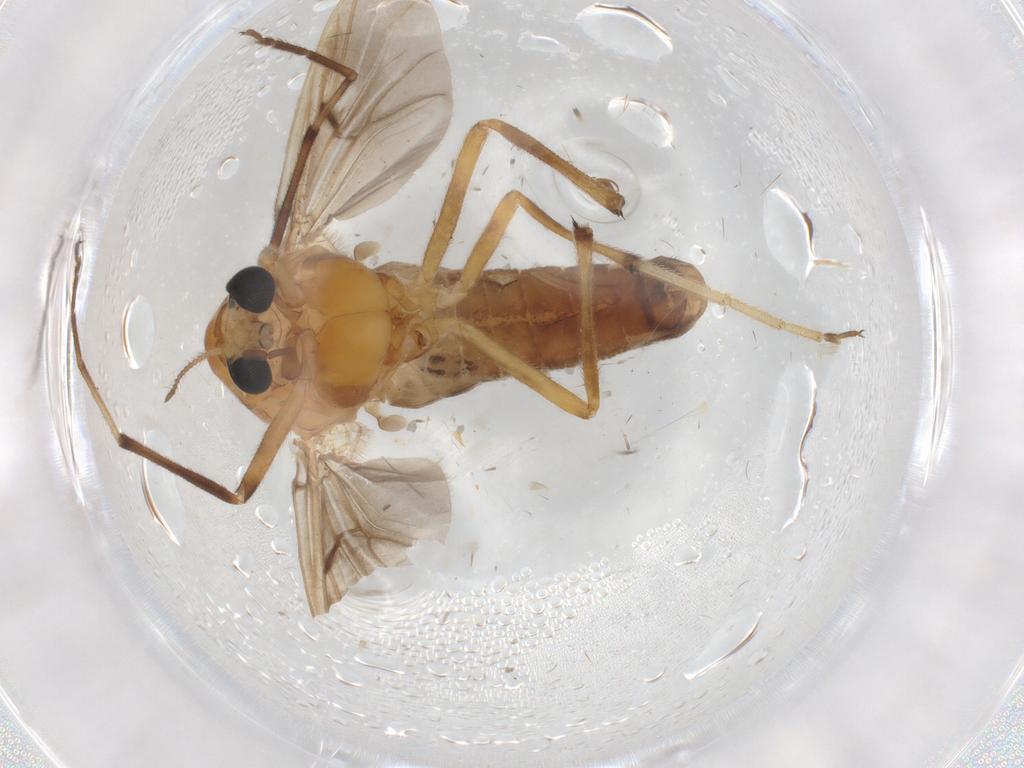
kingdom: Animalia
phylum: Arthropoda
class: Insecta
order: Diptera
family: Chironomidae
